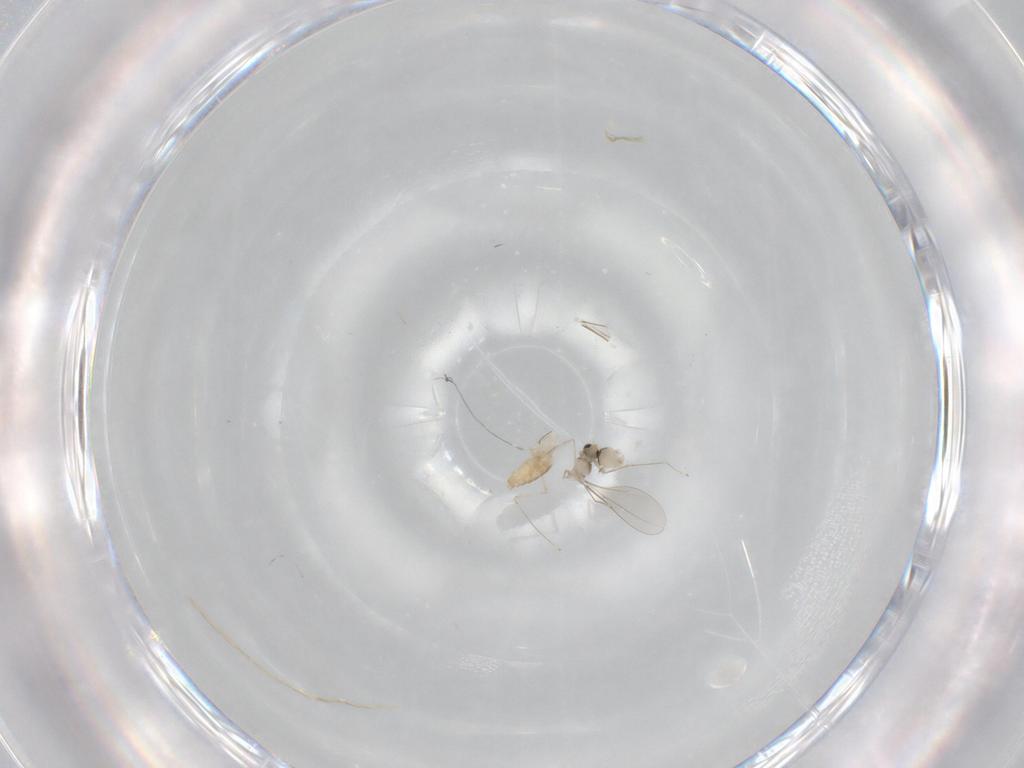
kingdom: Animalia
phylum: Arthropoda
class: Insecta
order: Diptera
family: Cecidomyiidae
